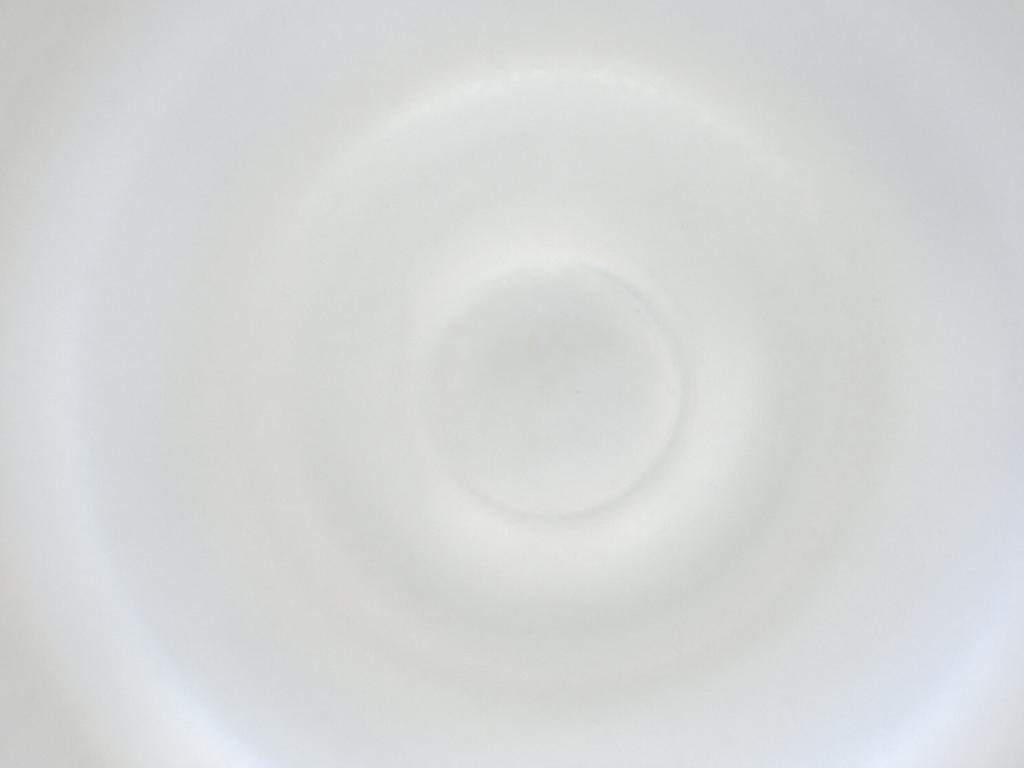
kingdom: Animalia
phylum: Arthropoda
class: Insecta
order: Diptera
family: Cecidomyiidae
